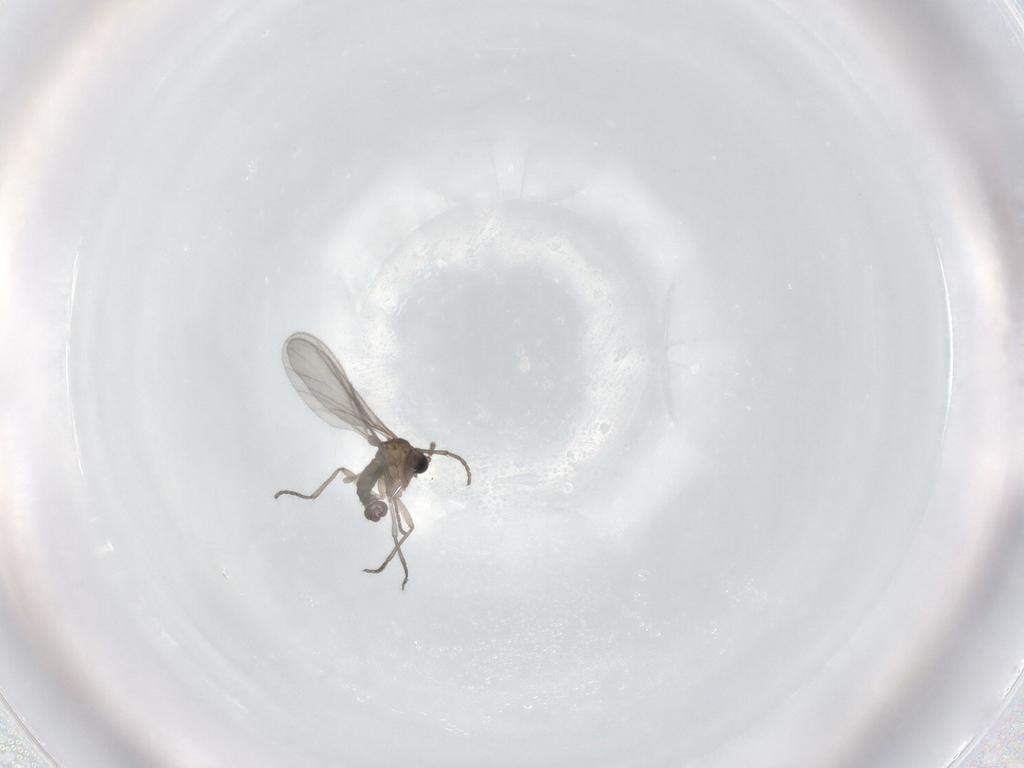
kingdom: Animalia
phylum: Arthropoda
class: Insecta
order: Diptera
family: Sciaridae
